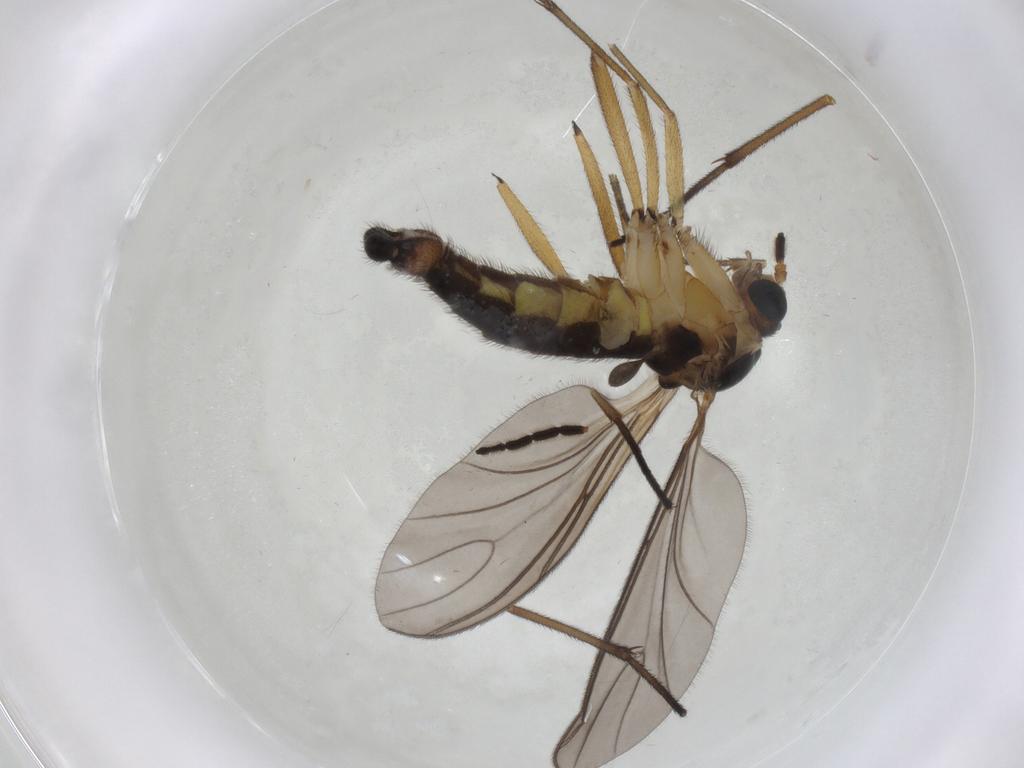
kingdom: Animalia
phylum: Arthropoda
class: Insecta
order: Diptera
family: Sciaridae
